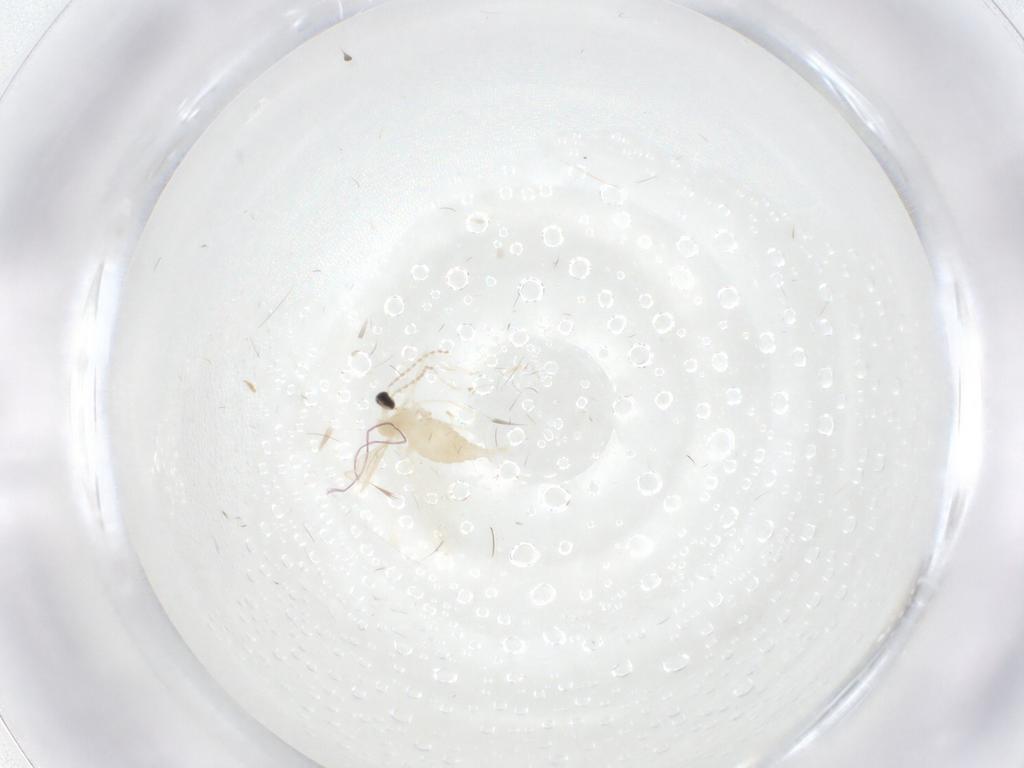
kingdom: Animalia
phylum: Arthropoda
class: Insecta
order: Diptera
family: Cecidomyiidae
